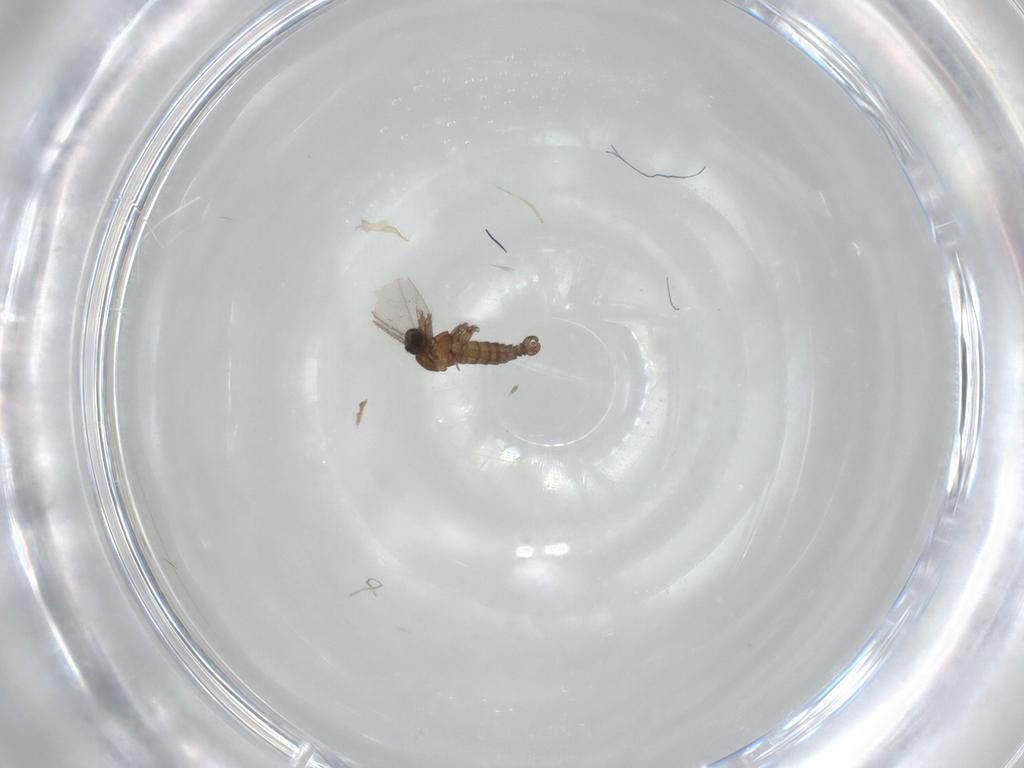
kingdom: Animalia
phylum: Arthropoda
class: Insecta
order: Diptera
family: Sciaridae
